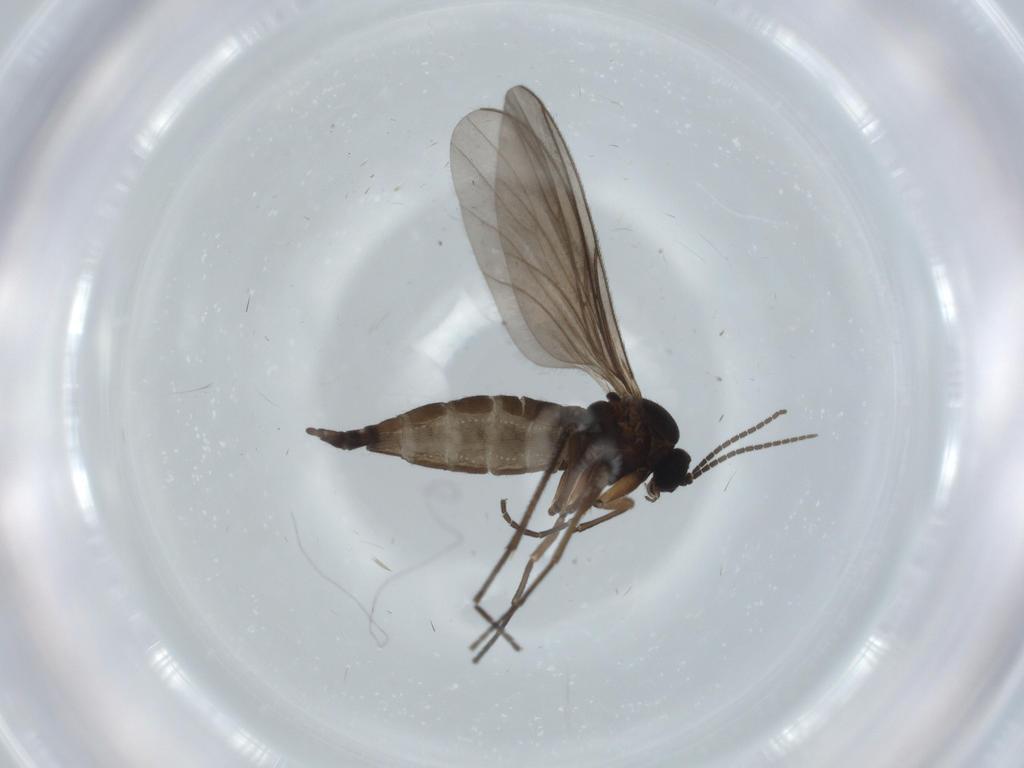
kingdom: Animalia
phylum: Arthropoda
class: Insecta
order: Diptera
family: Sciaridae
